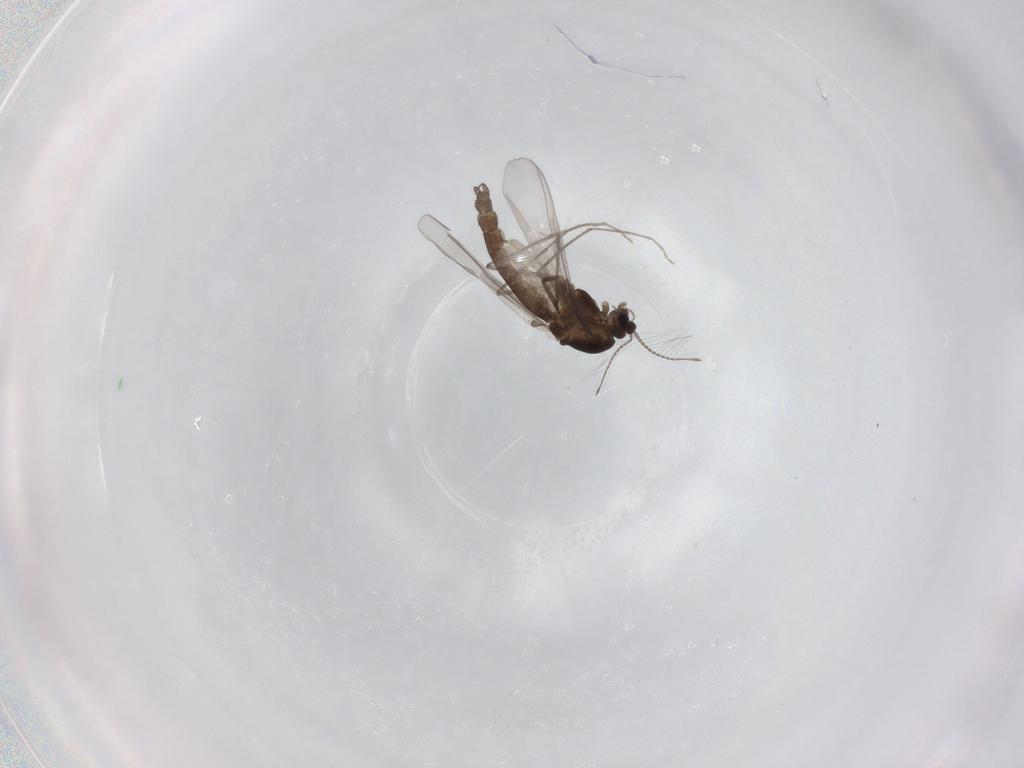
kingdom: Animalia
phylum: Arthropoda
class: Insecta
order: Diptera
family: Chironomidae
